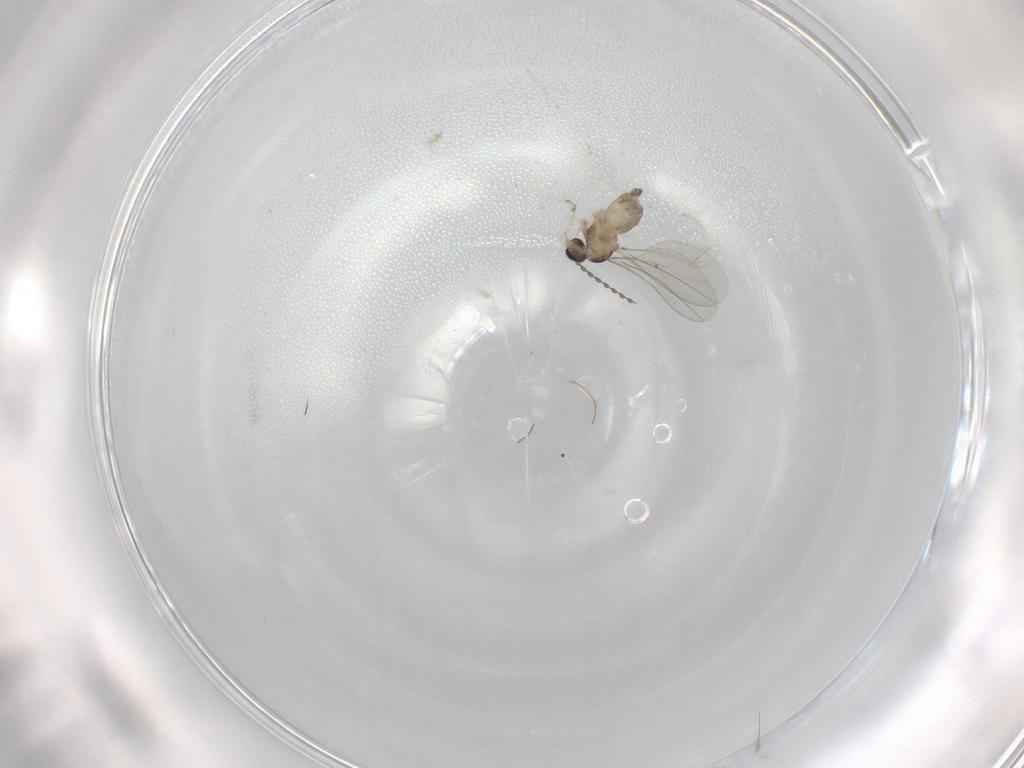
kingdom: Animalia
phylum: Arthropoda
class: Insecta
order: Diptera
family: Cecidomyiidae
